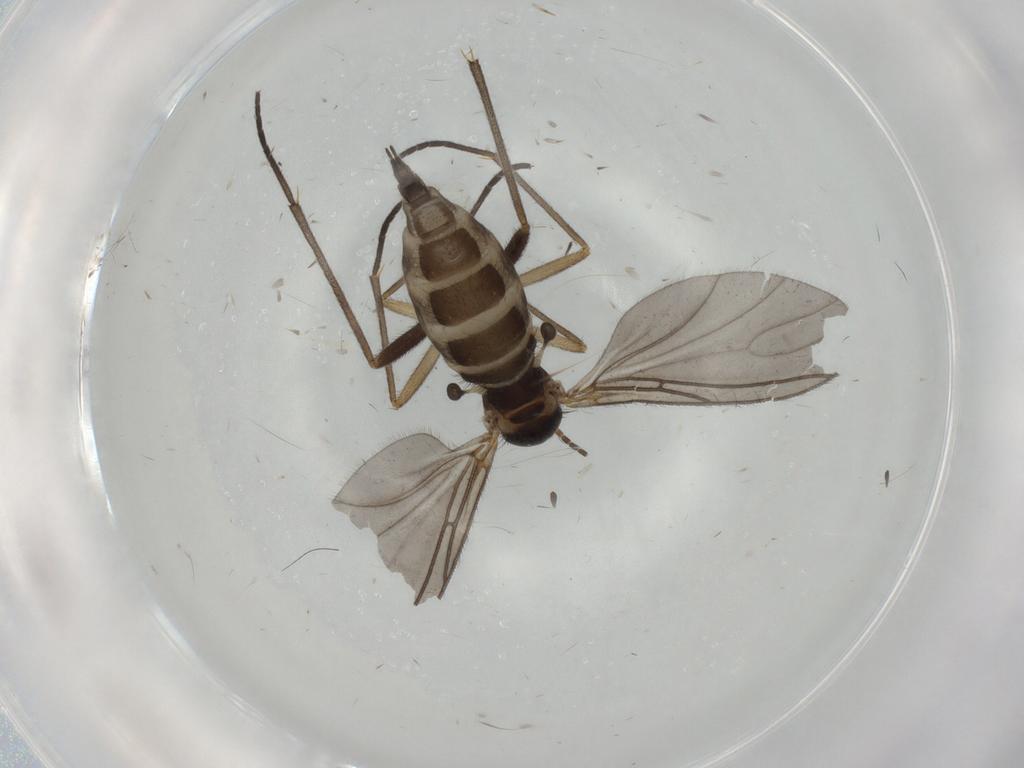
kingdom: Animalia
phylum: Arthropoda
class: Insecta
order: Diptera
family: Sciaridae
